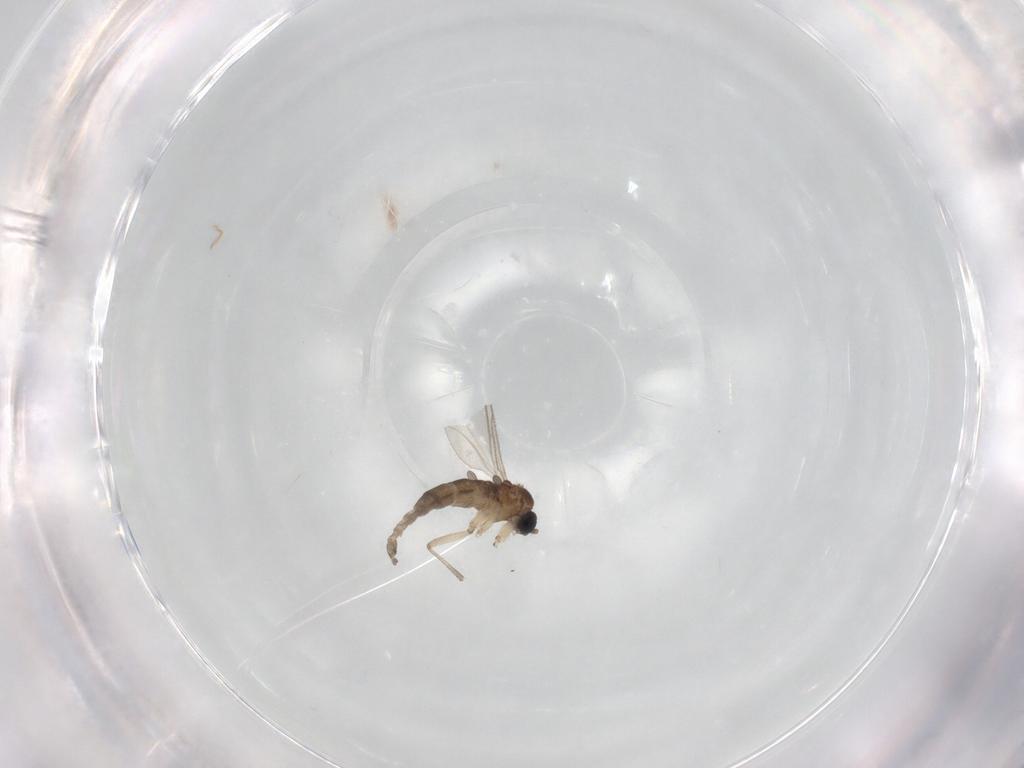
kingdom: Animalia
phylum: Arthropoda
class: Insecta
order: Diptera
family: Sciaridae
